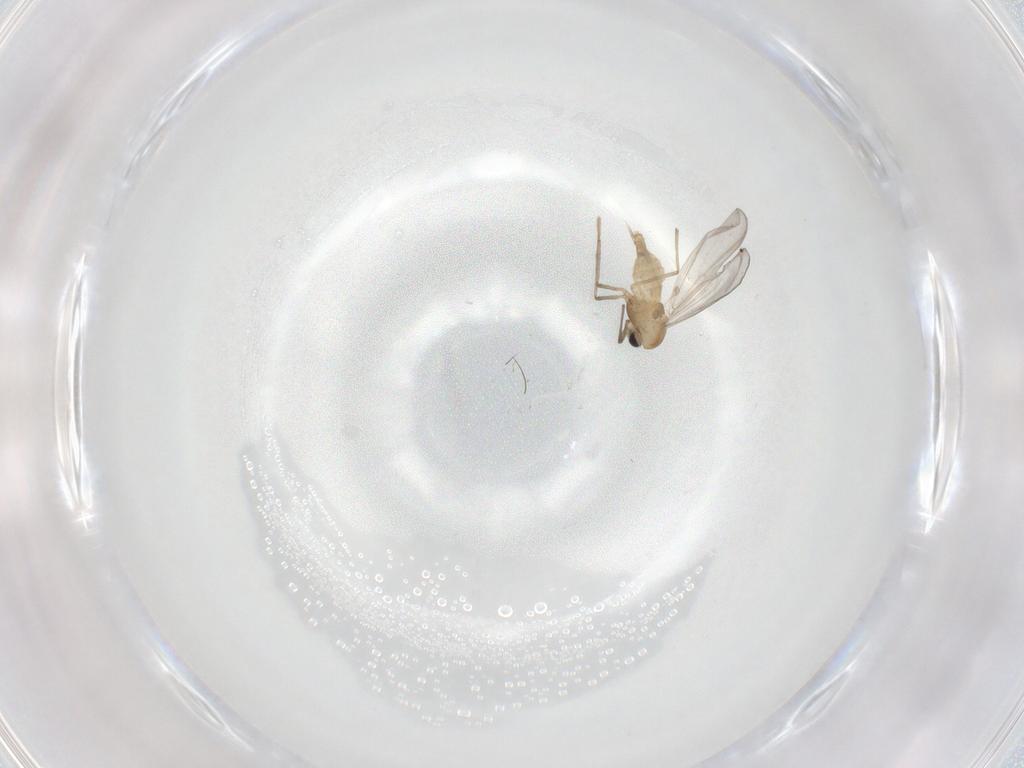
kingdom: Animalia
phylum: Arthropoda
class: Insecta
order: Diptera
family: Chironomidae
